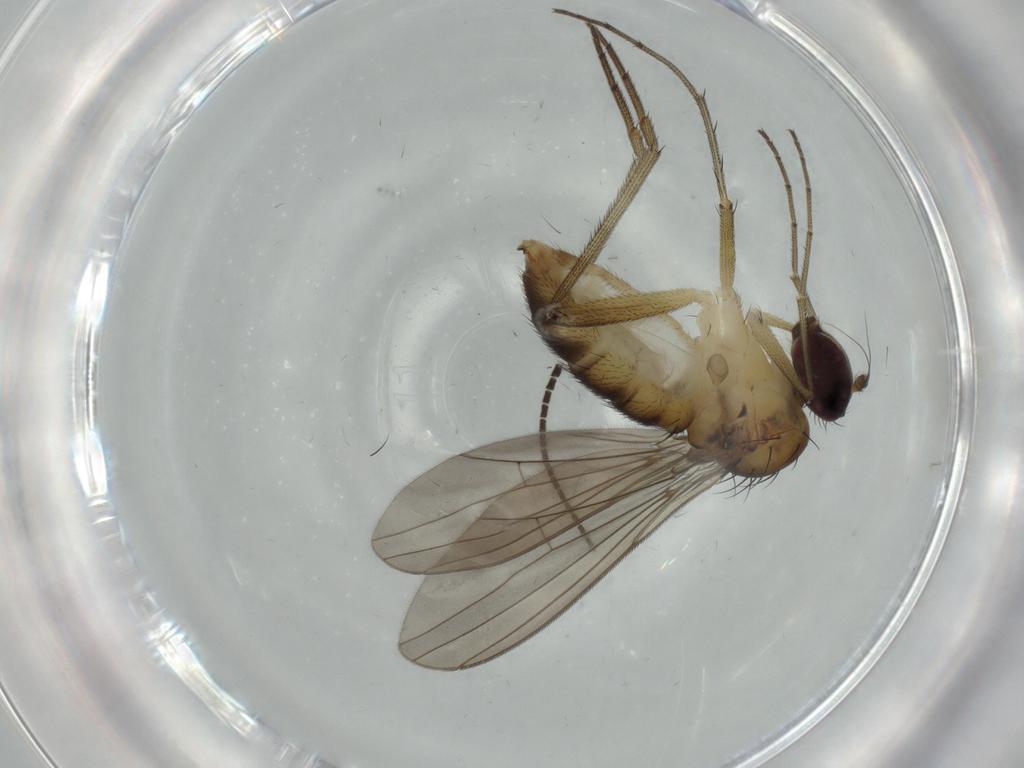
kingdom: Animalia
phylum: Arthropoda
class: Insecta
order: Diptera
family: Sciaridae
